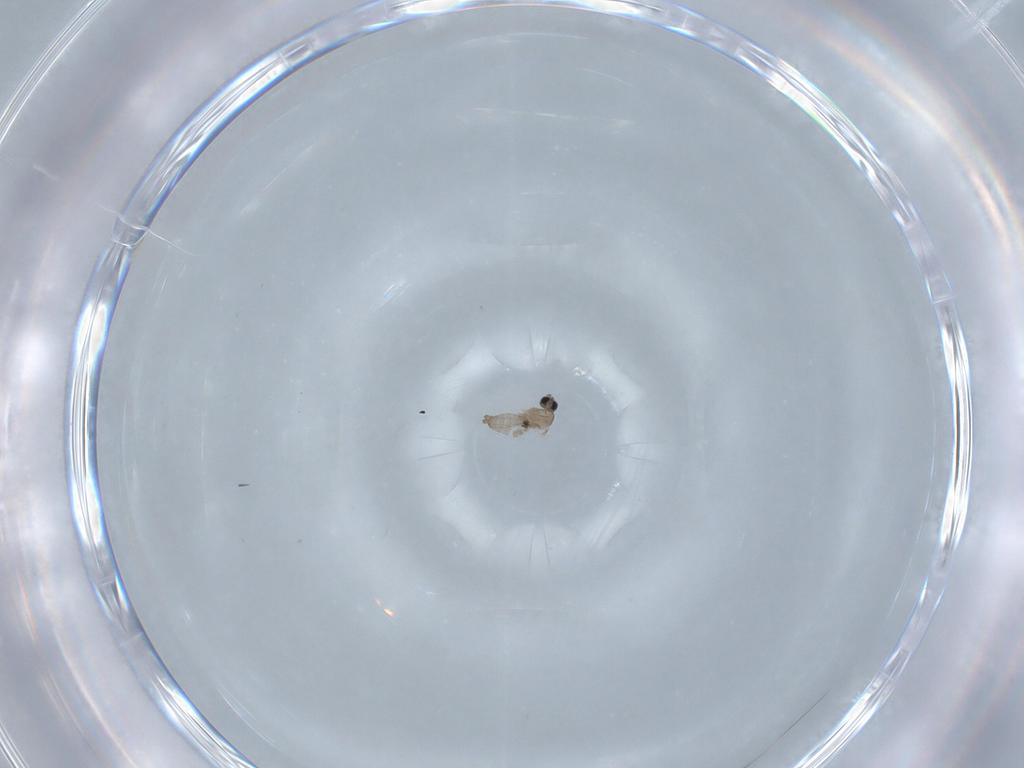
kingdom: Animalia
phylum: Arthropoda
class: Insecta
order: Diptera
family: Cecidomyiidae
